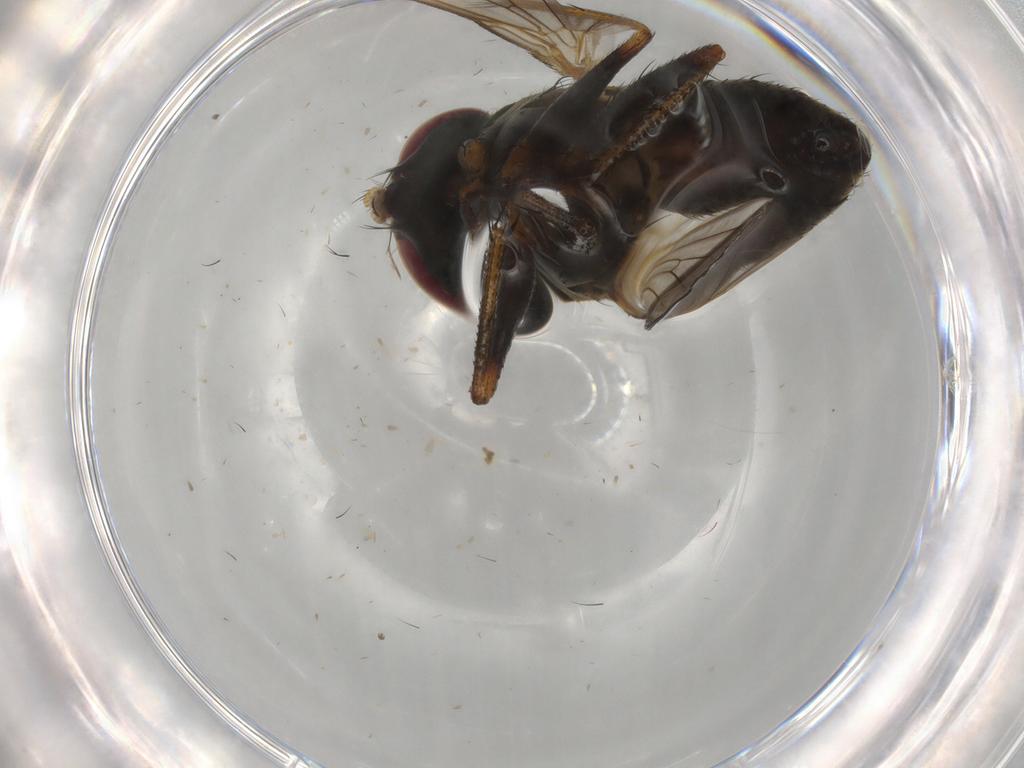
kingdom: Animalia
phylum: Arthropoda
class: Insecta
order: Diptera
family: Muscidae
